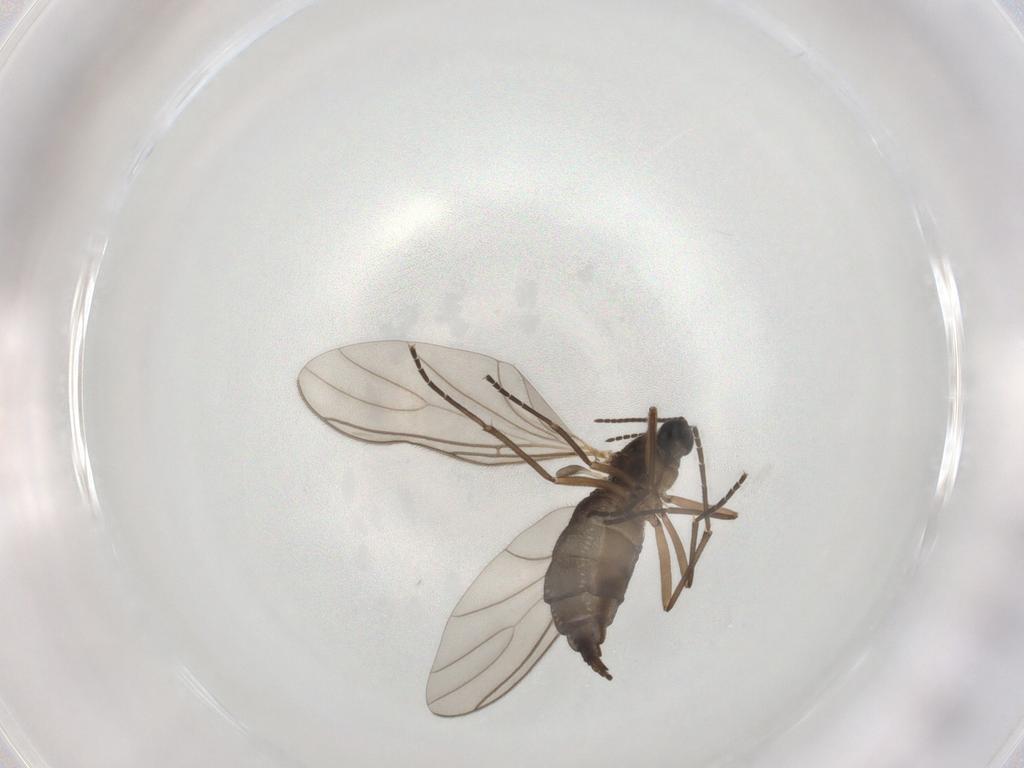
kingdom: Animalia
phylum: Arthropoda
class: Insecta
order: Diptera
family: Sciaridae
